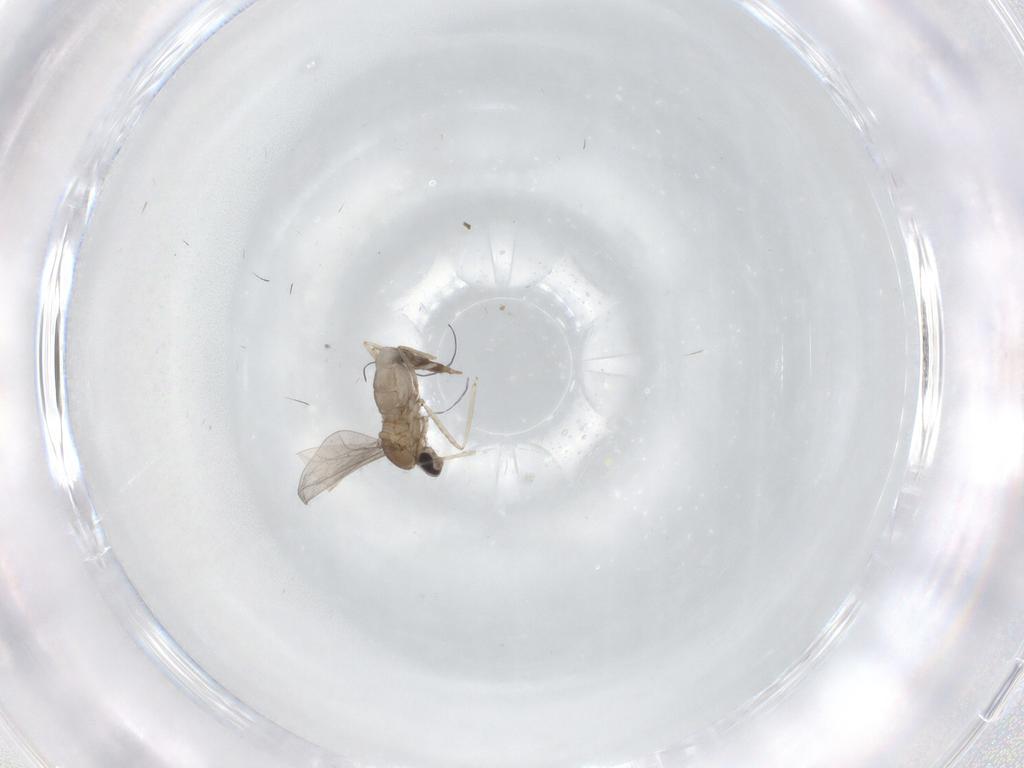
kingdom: Animalia
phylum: Arthropoda
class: Insecta
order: Diptera
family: Cecidomyiidae
